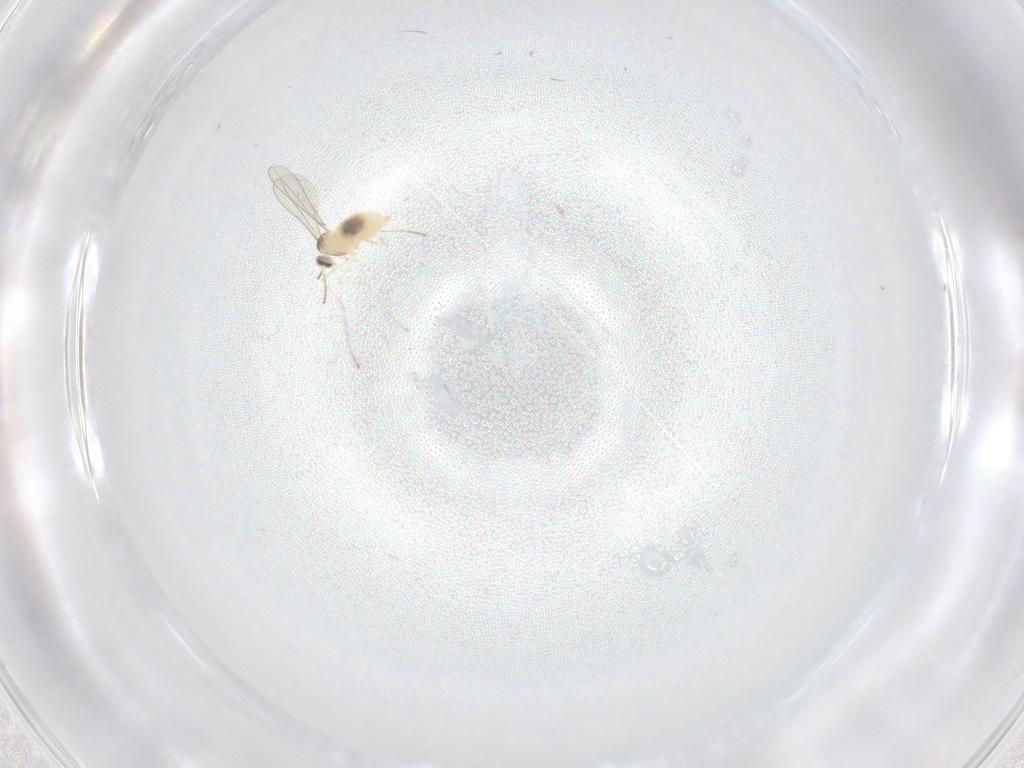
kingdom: Animalia
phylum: Arthropoda
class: Insecta
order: Diptera
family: Cecidomyiidae
